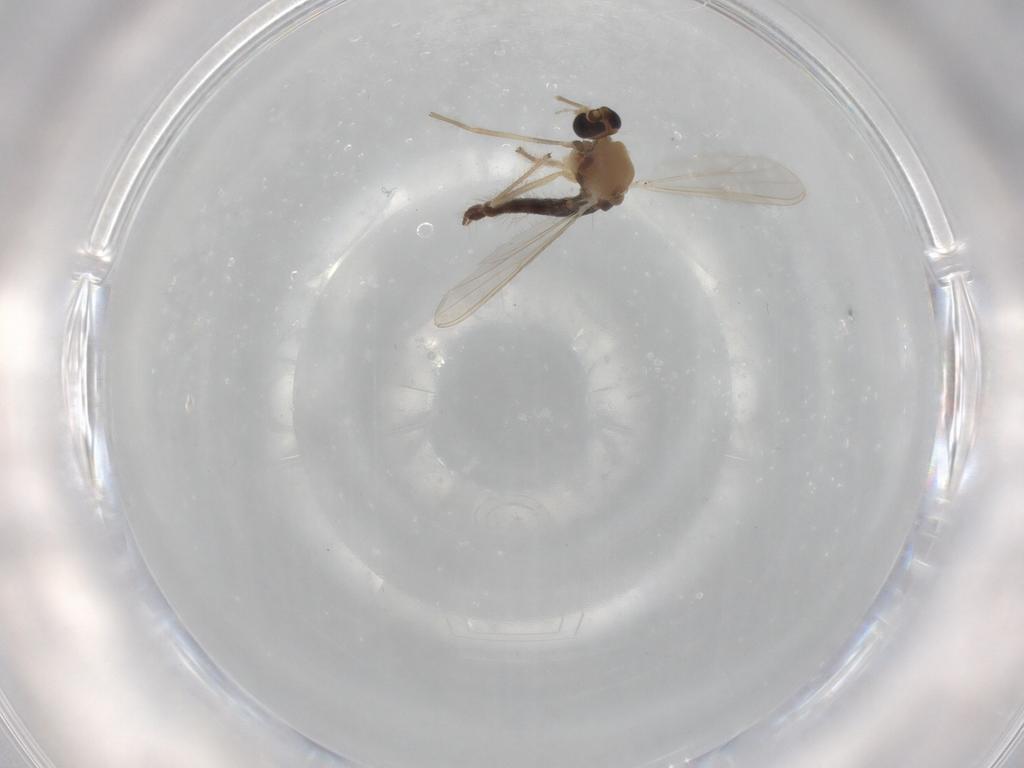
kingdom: Animalia
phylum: Arthropoda
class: Insecta
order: Diptera
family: Chironomidae
